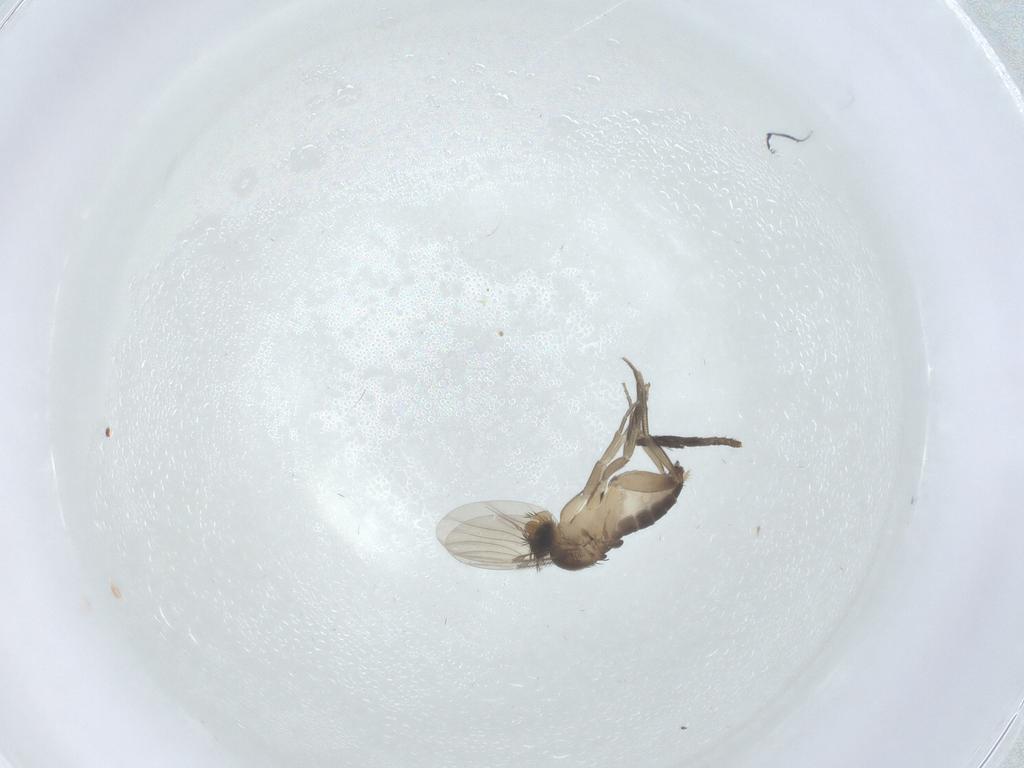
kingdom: Animalia
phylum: Arthropoda
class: Insecta
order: Diptera
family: Phoridae
